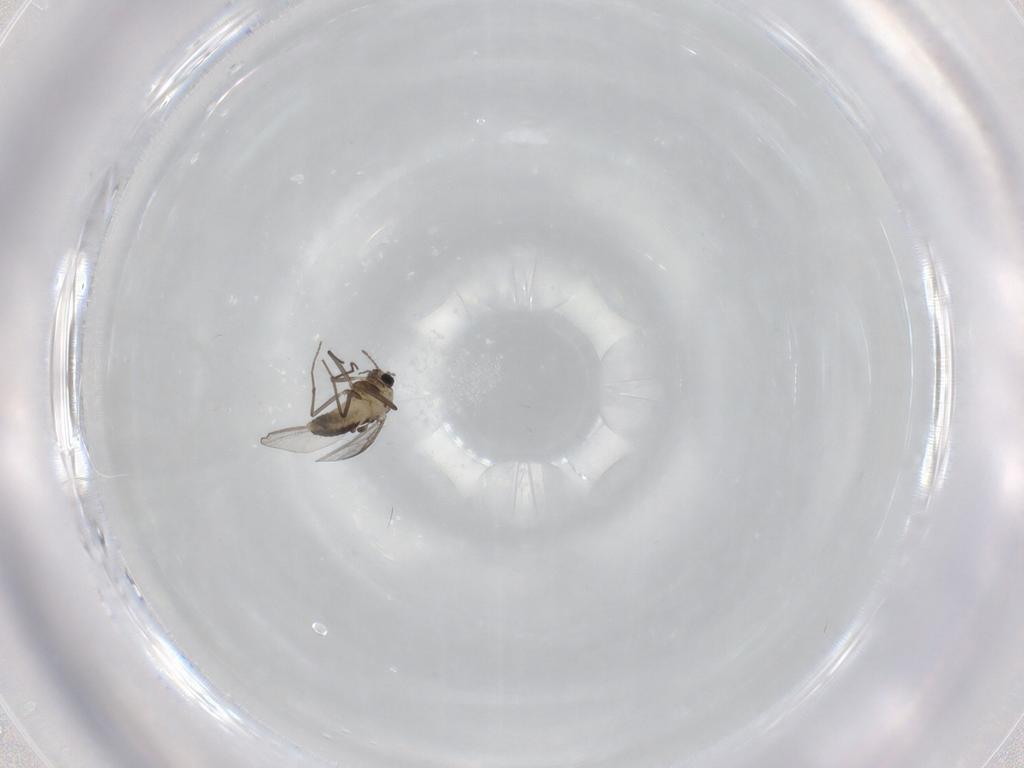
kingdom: Animalia
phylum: Arthropoda
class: Insecta
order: Diptera
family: Chironomidae
